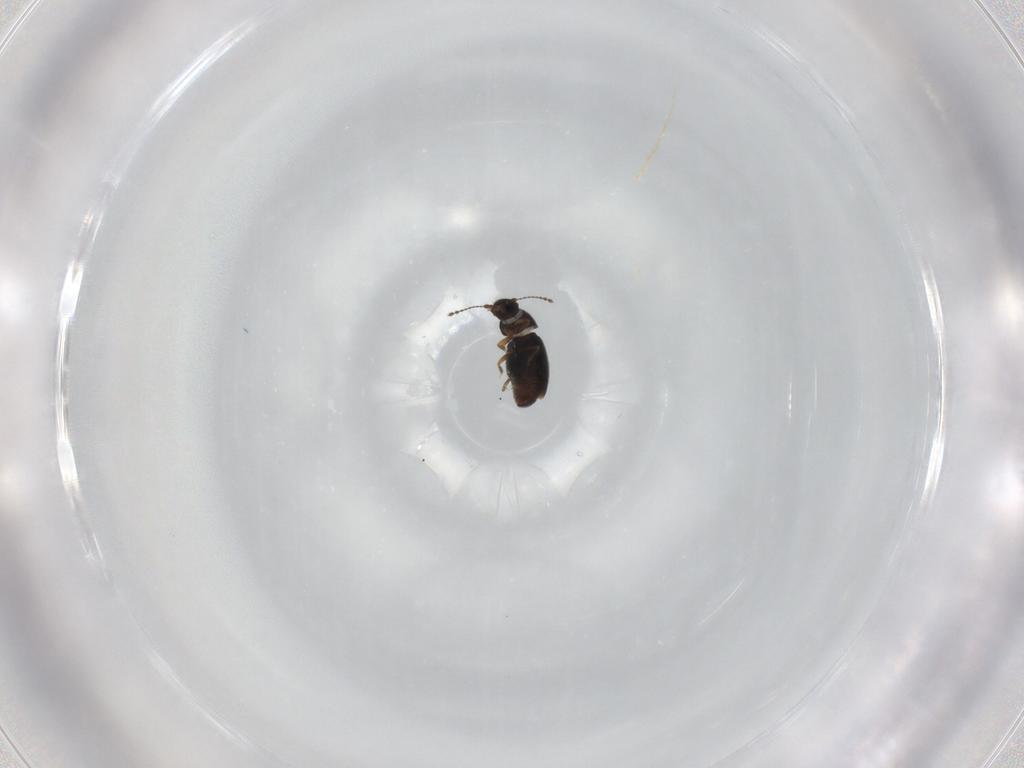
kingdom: Animalia
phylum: Arthropoda
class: Insecta
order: Coleoptera
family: Ptiliidae
